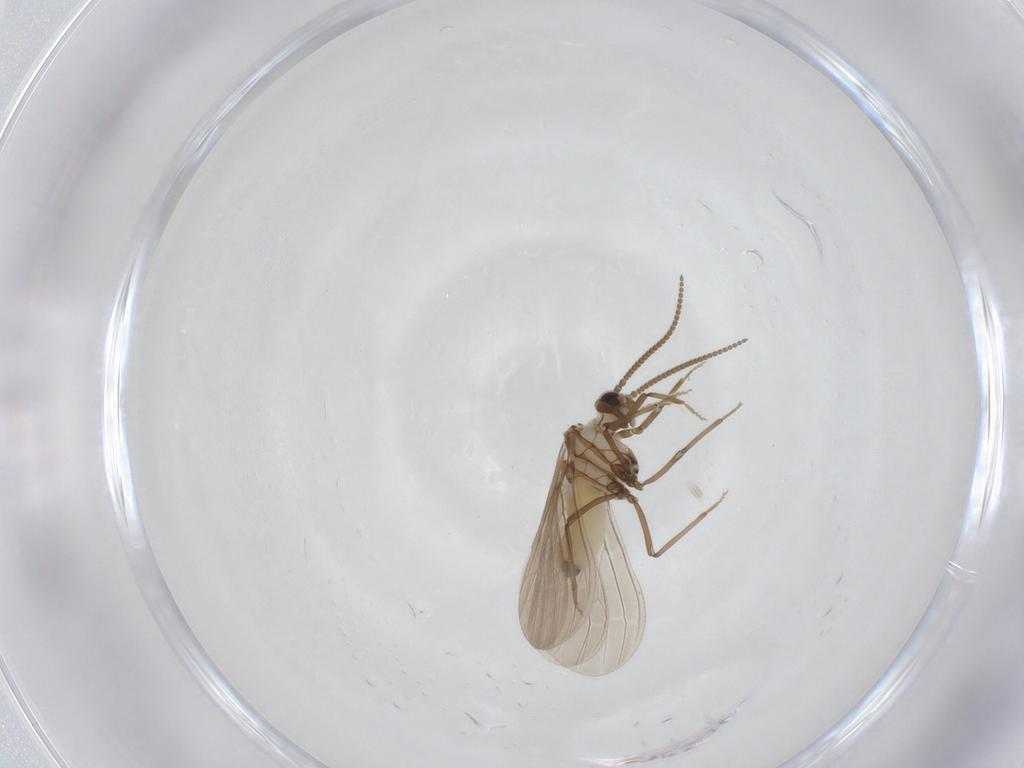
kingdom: Animalia
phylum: Arthropoda
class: Insecta
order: Neuroptera
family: Coniopterygidae
